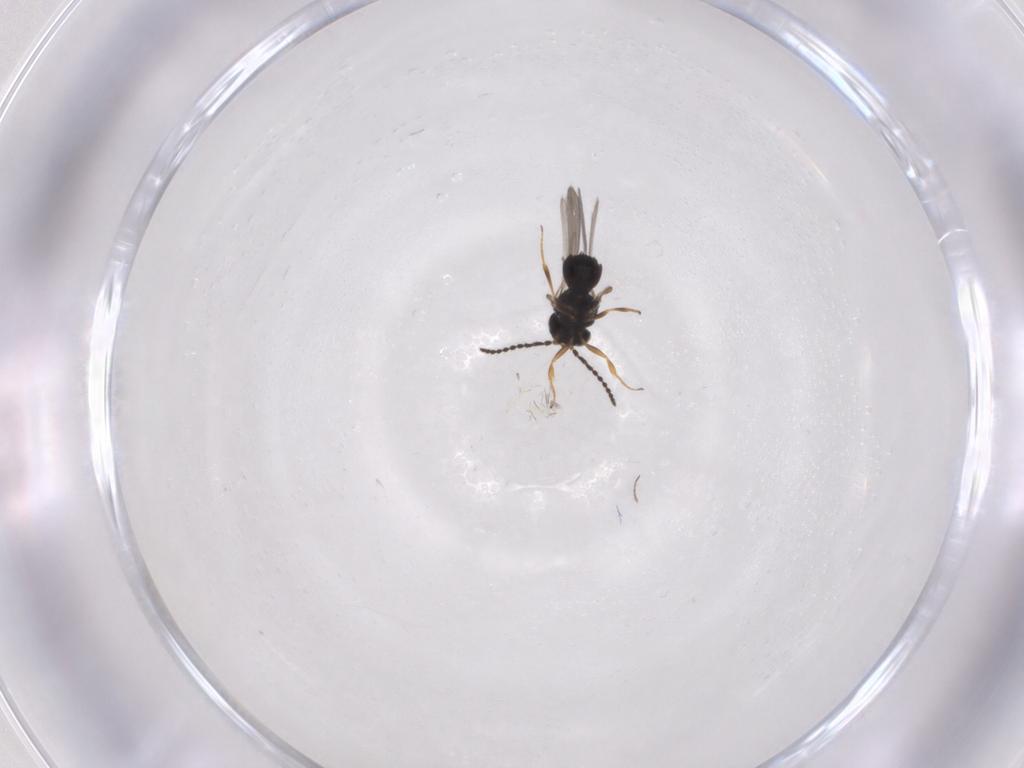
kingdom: Animalia
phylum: Arthropoda
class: Insecta
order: Hymenoptera
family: Scelionidae
